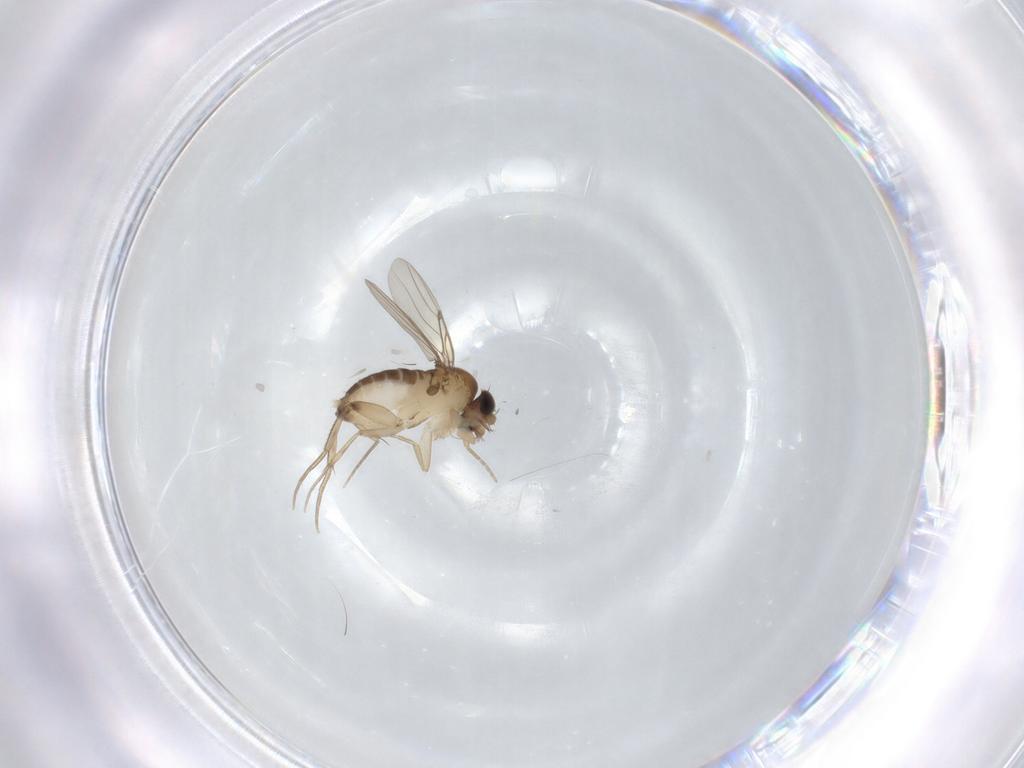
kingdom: Animalia
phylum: Arthropoda
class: Insecta
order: Diptera
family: Phoridae
